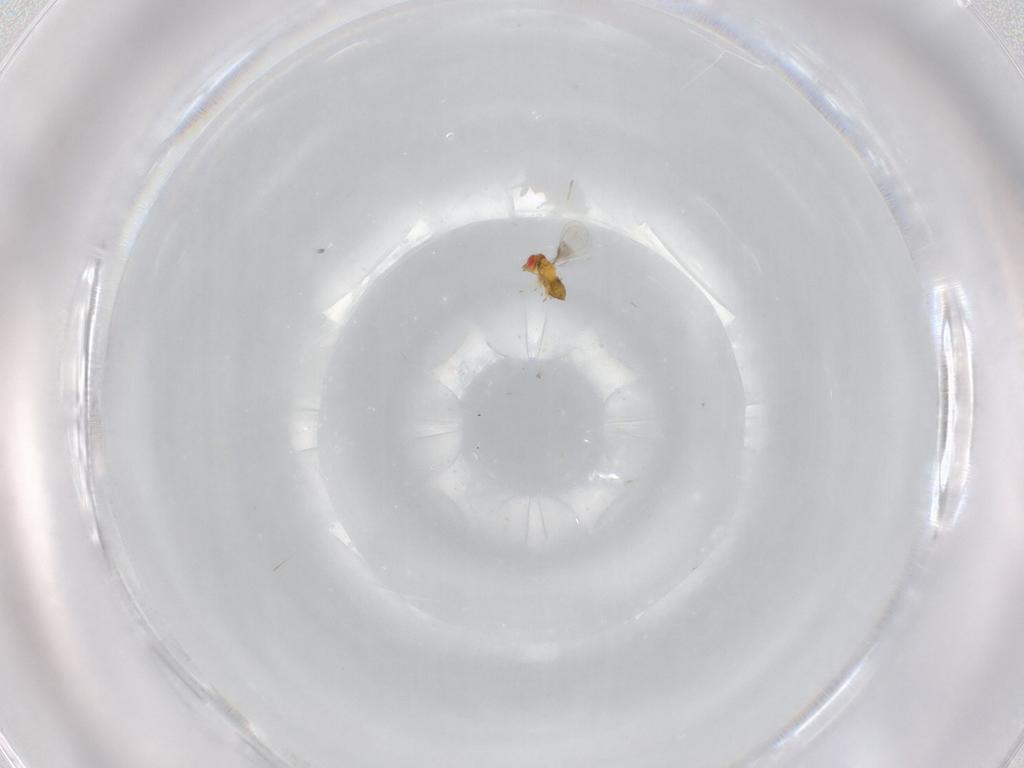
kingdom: Animalia
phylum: Arthropoda
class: Insecta
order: Hymenoptera
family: Trichogrammatidae
